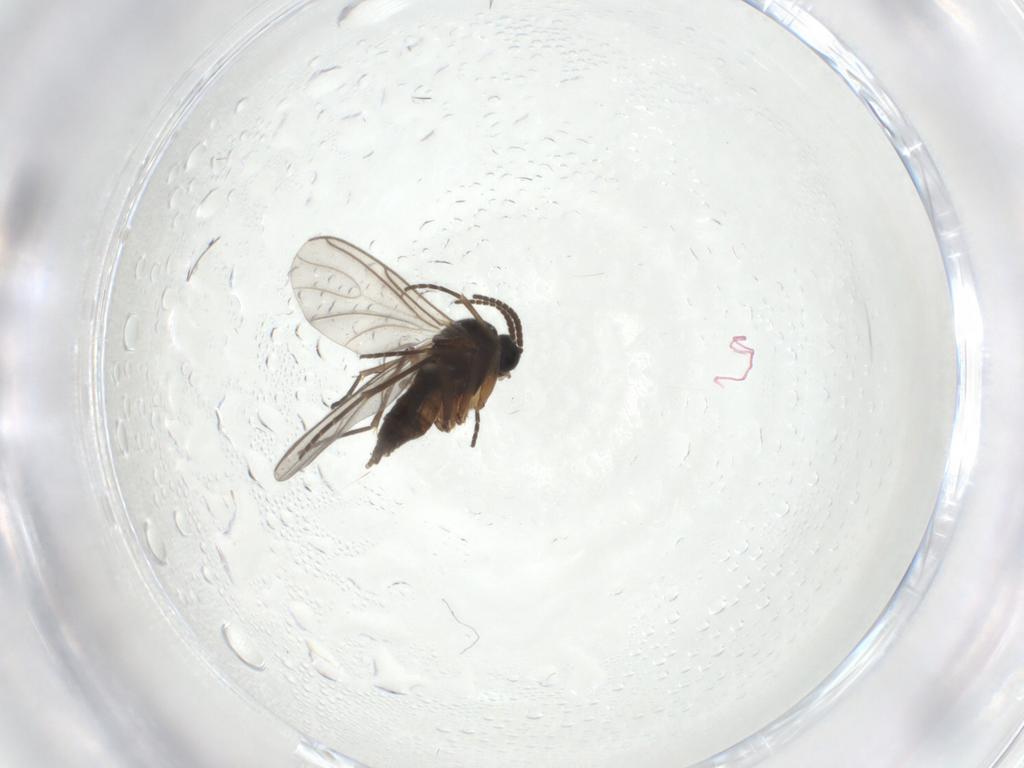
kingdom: Animalia
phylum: Arthropoda
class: Insecta
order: Diptera
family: Cecidomyiidae
